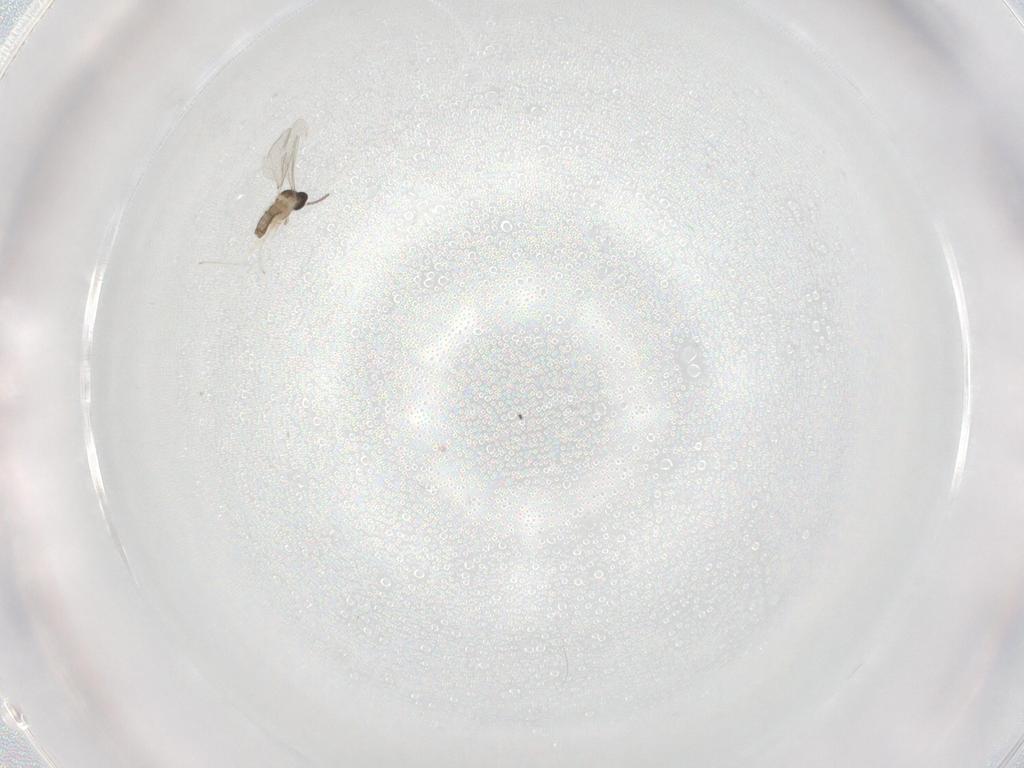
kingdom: Animalia
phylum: Arthropoda
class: Insecta
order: Diptera
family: Cecidomyiidae
